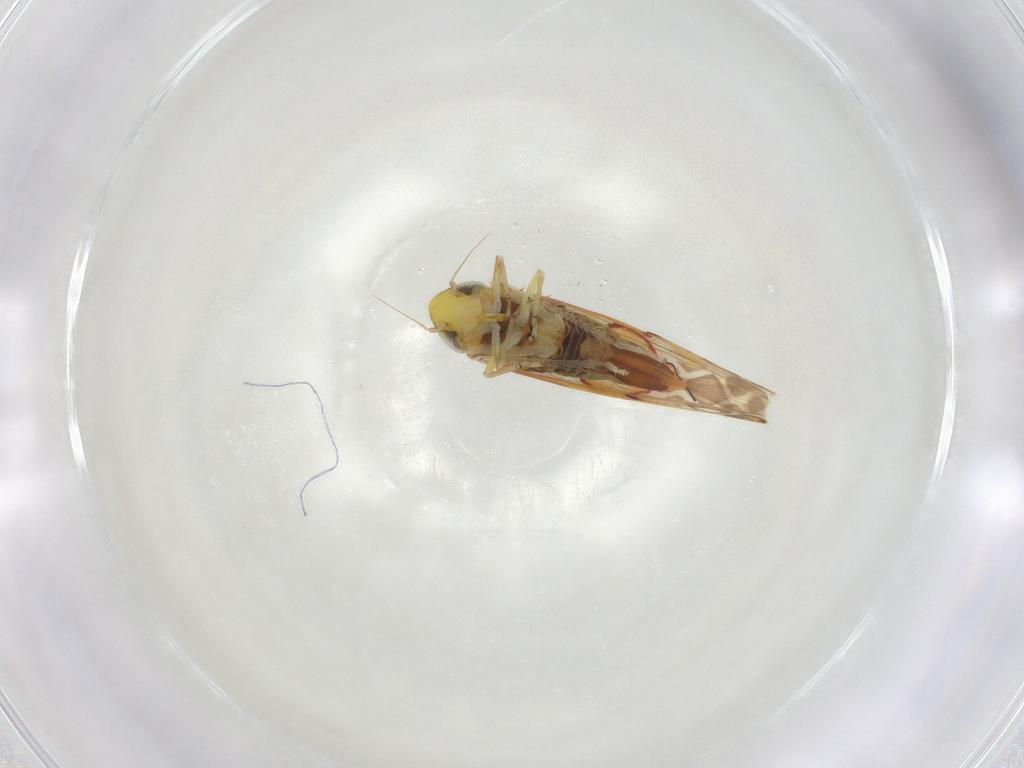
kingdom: Animalia
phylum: Arthropoda
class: Insecta
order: Hemiptera
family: Cicadellidae
